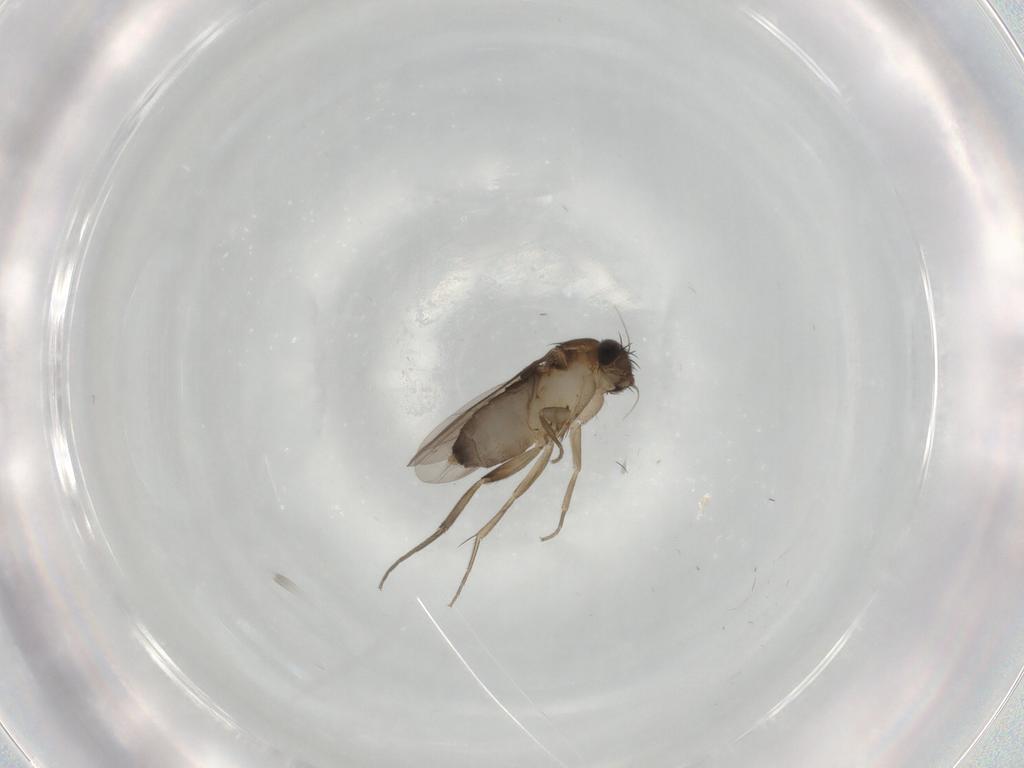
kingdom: Animalia
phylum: Arthropoda
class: Insecta
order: Diptera
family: Phoridae
